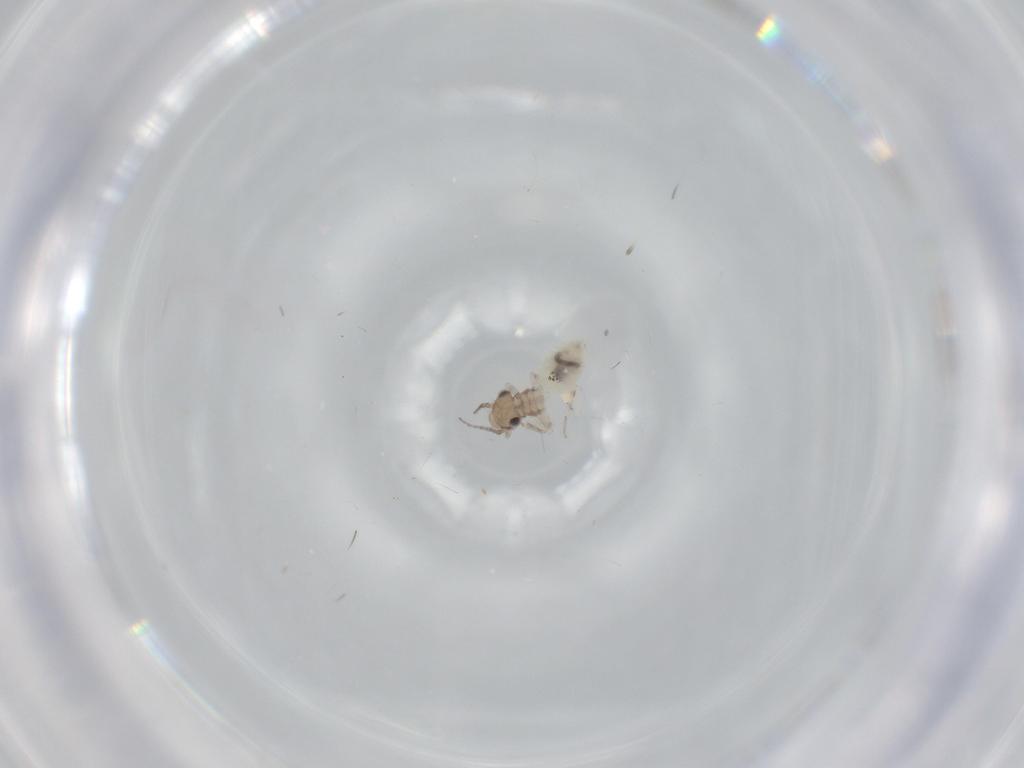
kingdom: Animalia
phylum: Arthropoda
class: Insecta
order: Psocodea
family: Lepidopsocidae
